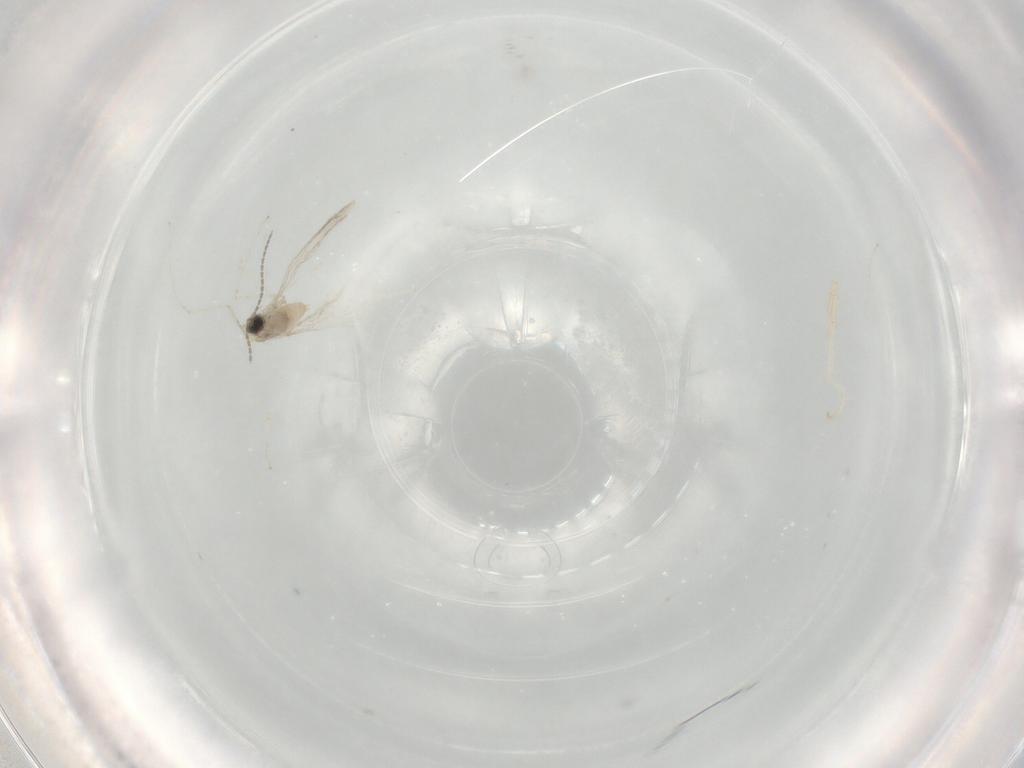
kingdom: Animalia
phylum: Arthropoda
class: Insecta
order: Diptera
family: Cecidomyiidae
